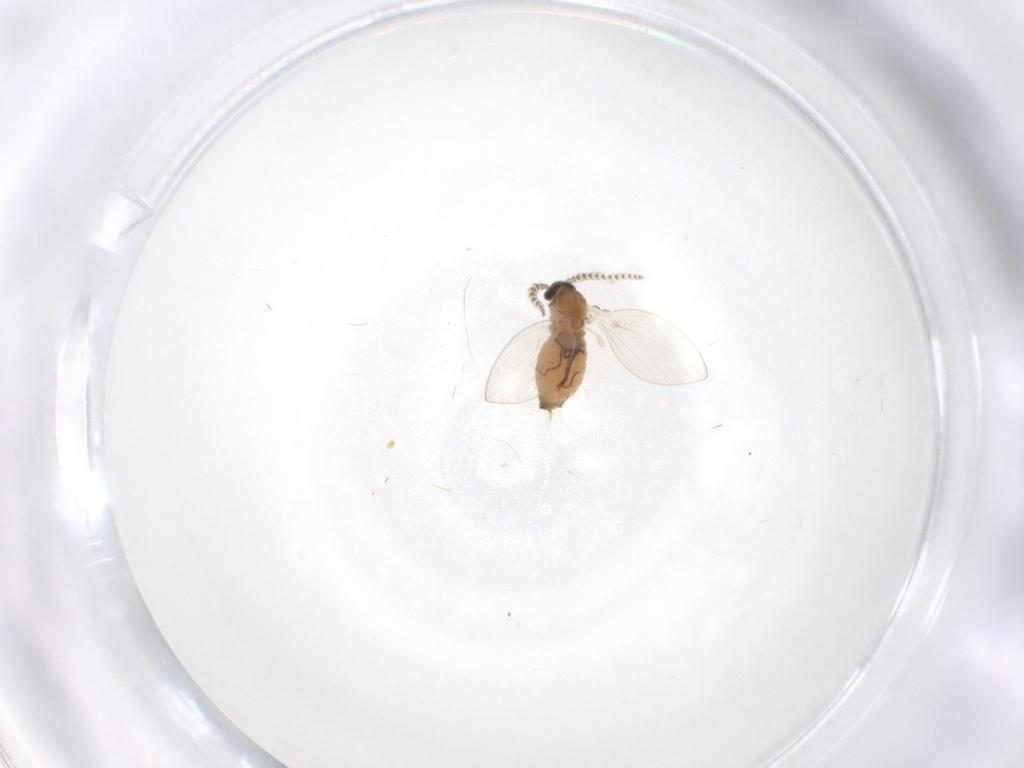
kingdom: Animalia
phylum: Arthropoda
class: Insecta
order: Diptera
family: Psychodidae
